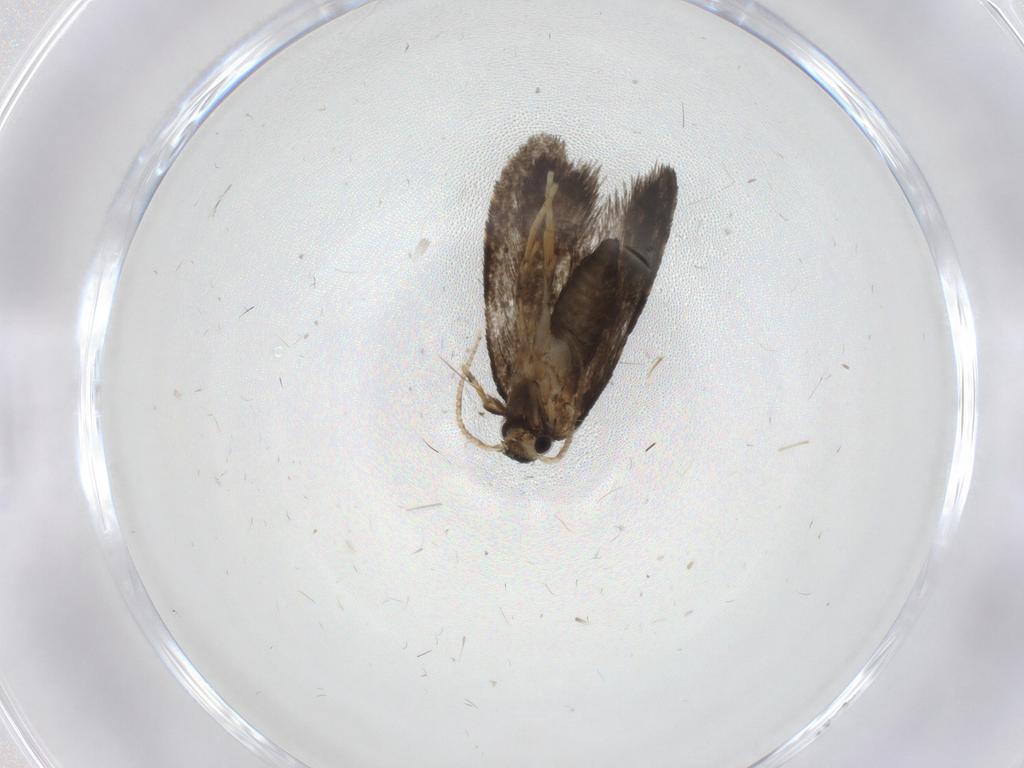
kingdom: Animalia
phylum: Arthropoda
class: Insecta
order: Lepidoptera
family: Psychidae
